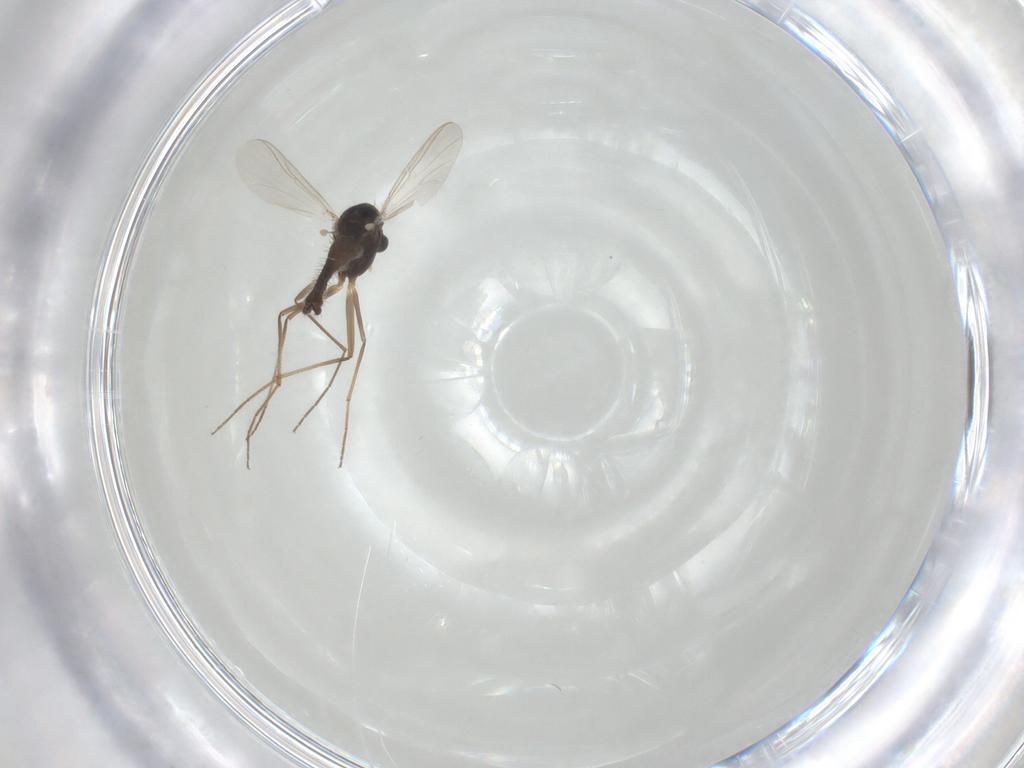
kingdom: Animalia
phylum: Arthropoda
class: Insecta
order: Diptera
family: Chironomidae
